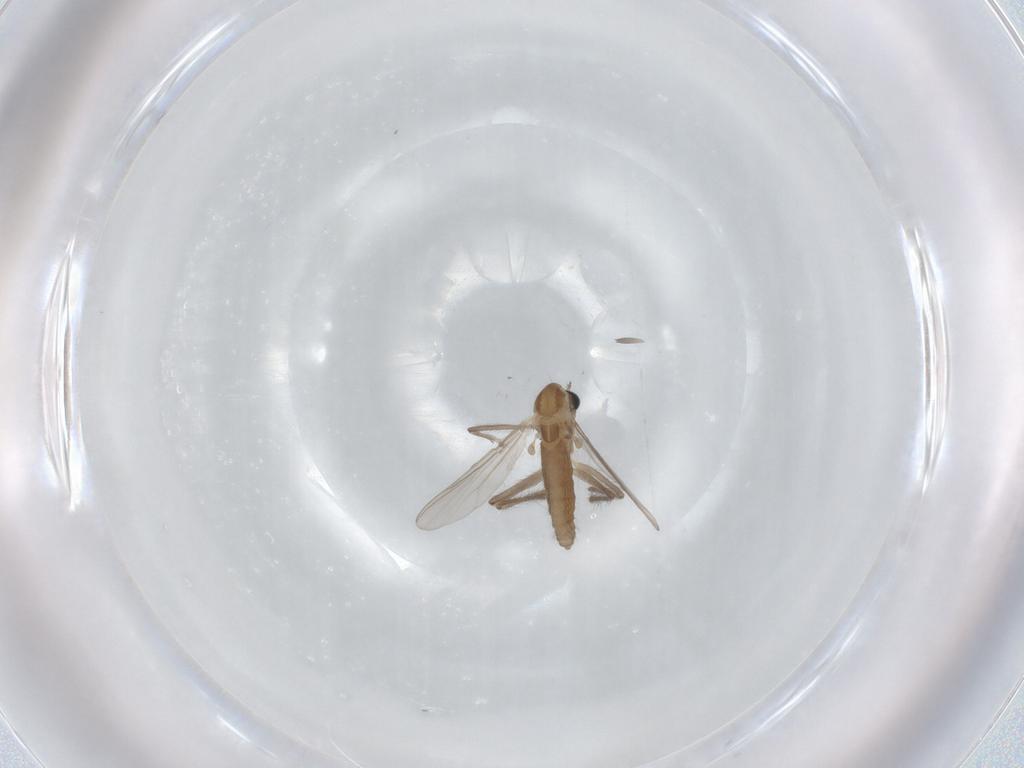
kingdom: Animalia
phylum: Arthropoda
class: Insecta
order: Diptera
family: Chironomidae
